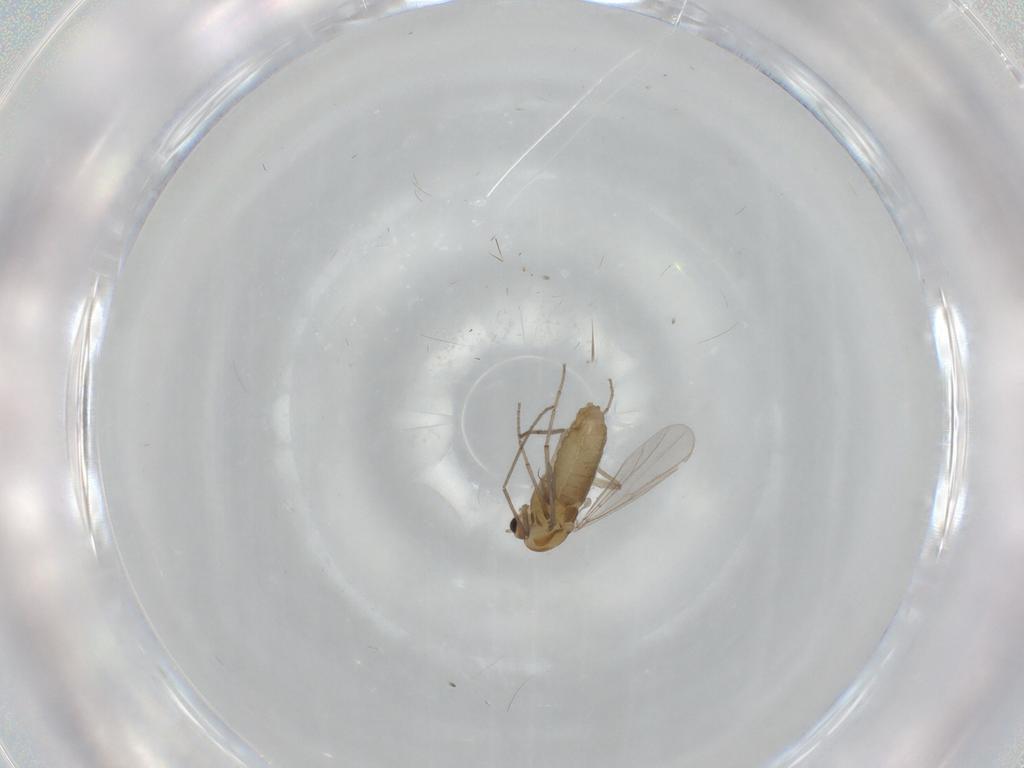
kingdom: Animalia
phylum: Arthropoda
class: Insecta
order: Diptera
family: Chironomidae
